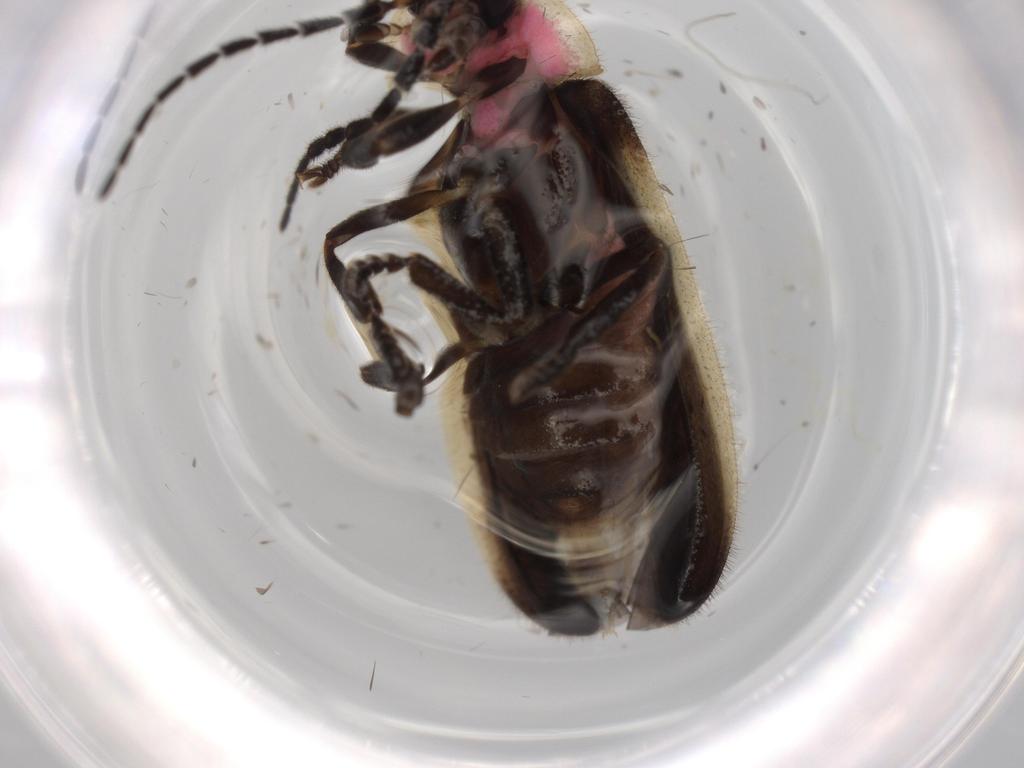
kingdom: Animalia
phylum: Arthropoda
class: Insecta
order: Coleoptera
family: Lampyridae
